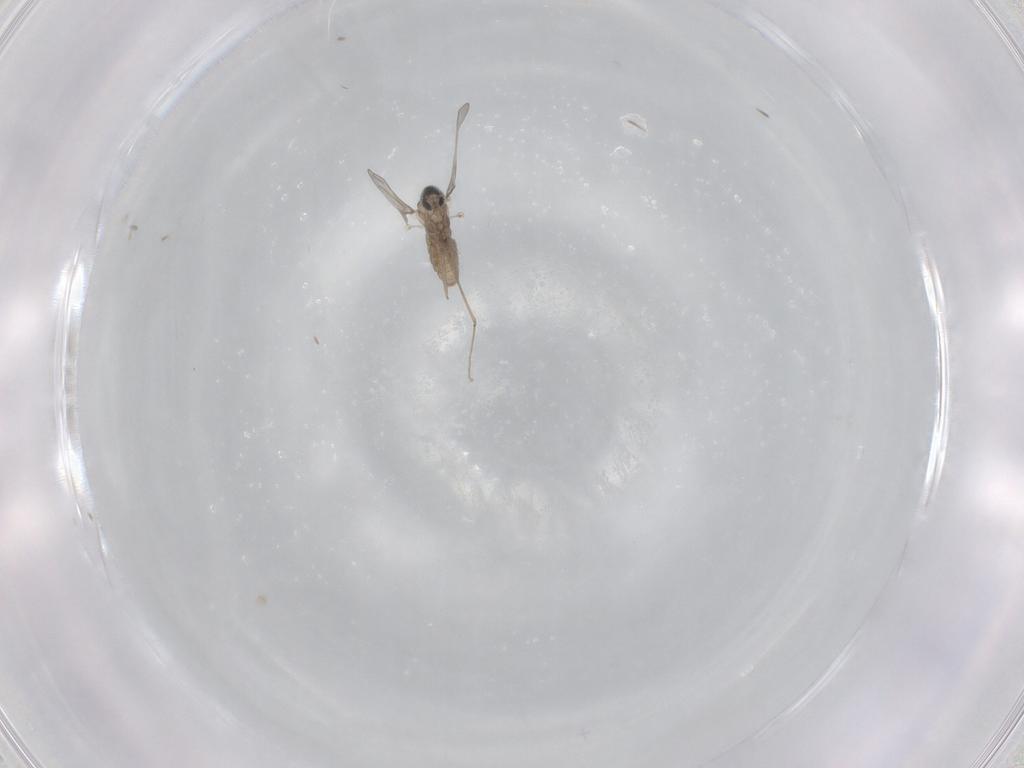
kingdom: Animalia
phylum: Arthropoda
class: Insecta
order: Diptera
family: Cecidomyiidae
